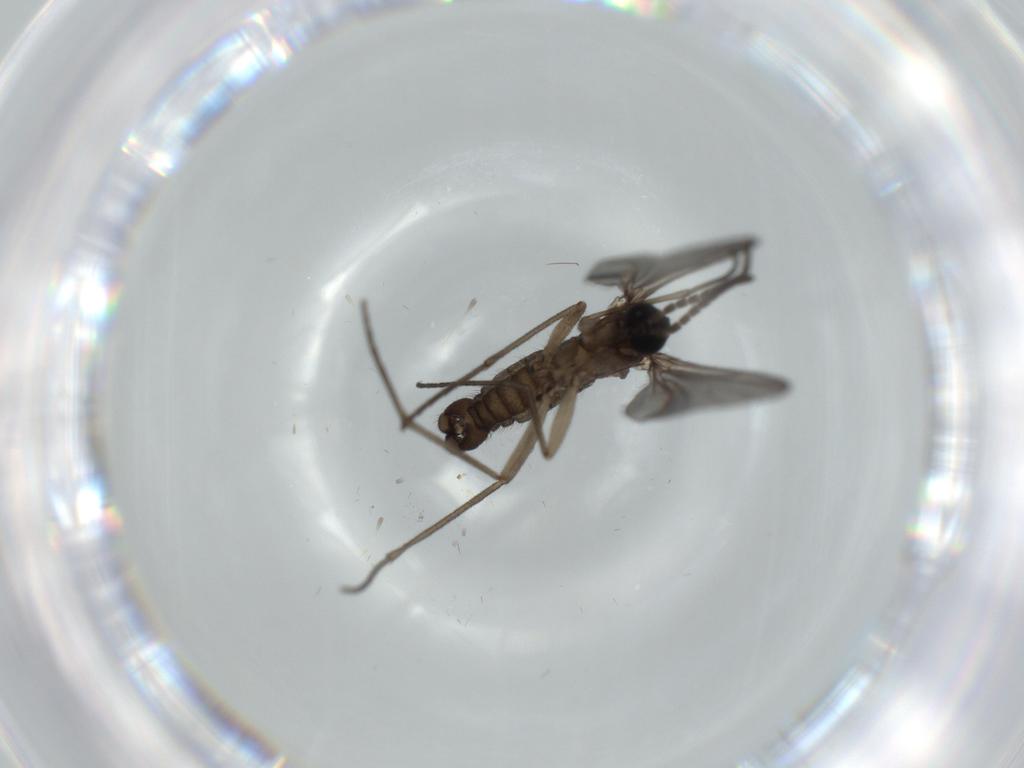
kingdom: Animalia
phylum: Arthropoda
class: Insecta
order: Diptera
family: Sciaridae
